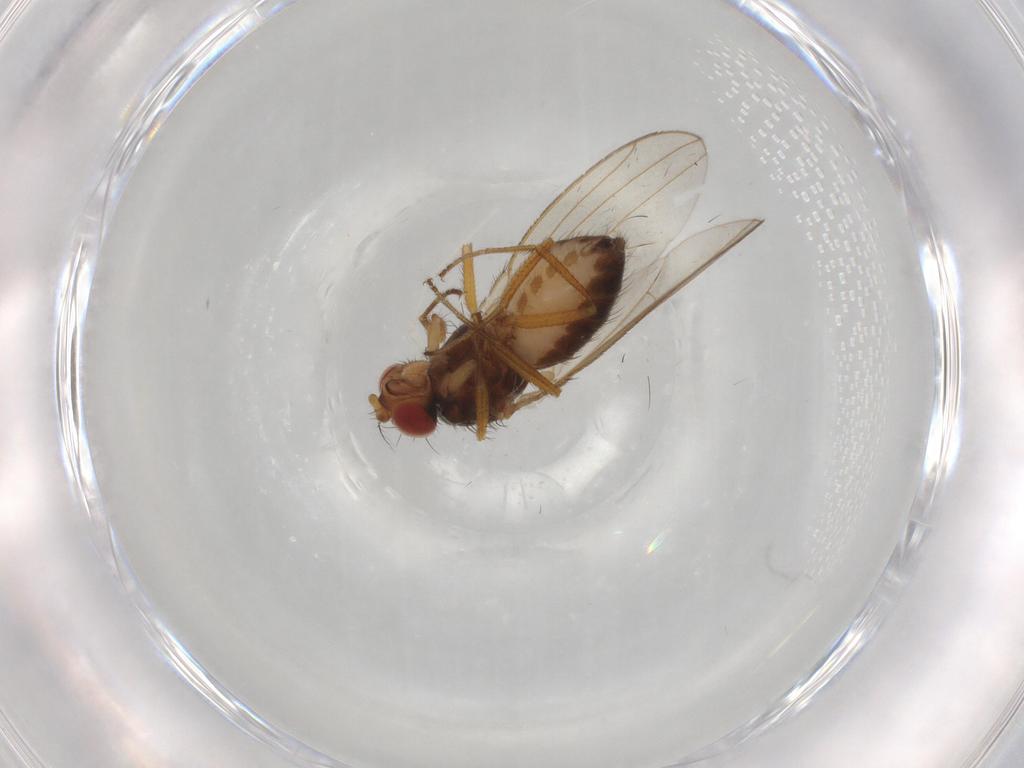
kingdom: Animalia
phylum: Arthropoda
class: Insecta
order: Diptera
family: Drosophilidae
